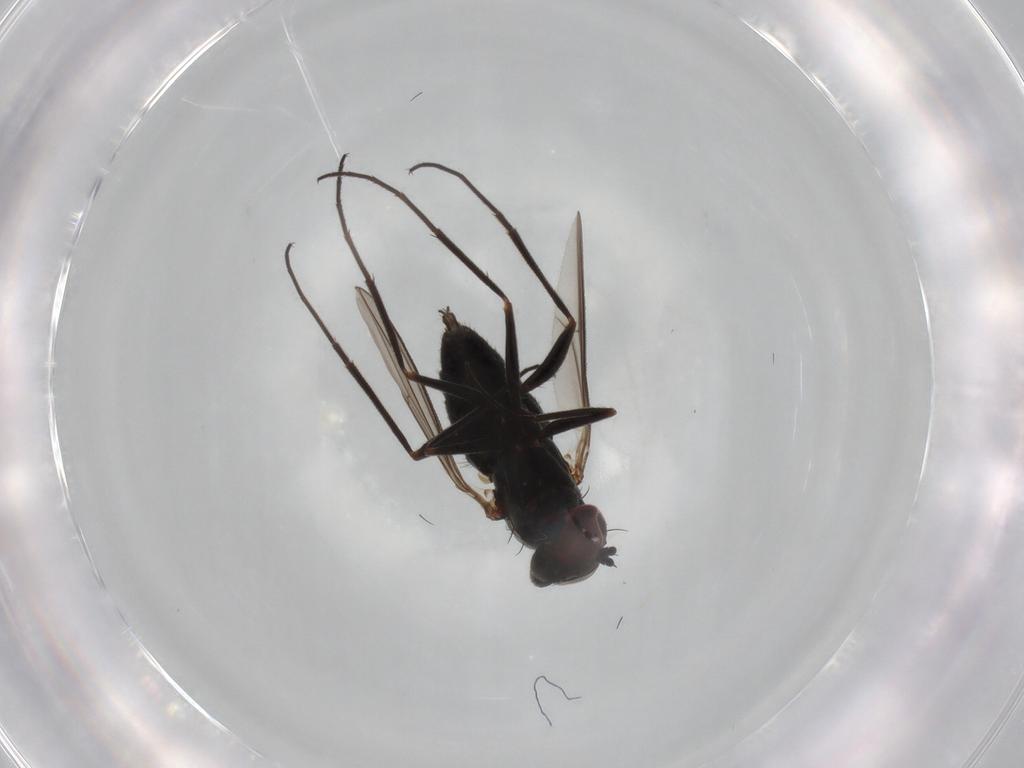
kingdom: Animalia
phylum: Arthropoda
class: Insecta
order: Diptera
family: Dolichopodidae
